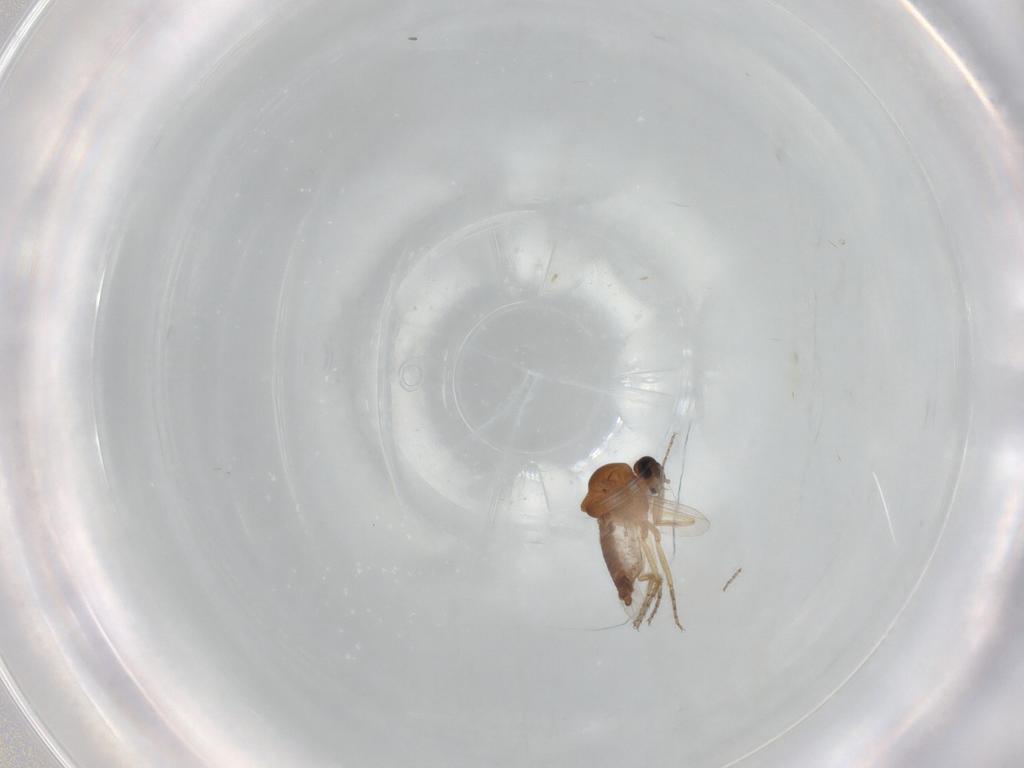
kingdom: Animalia
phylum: Arthropoda
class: Insecta
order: Diptera
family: Ceratopogonidae
